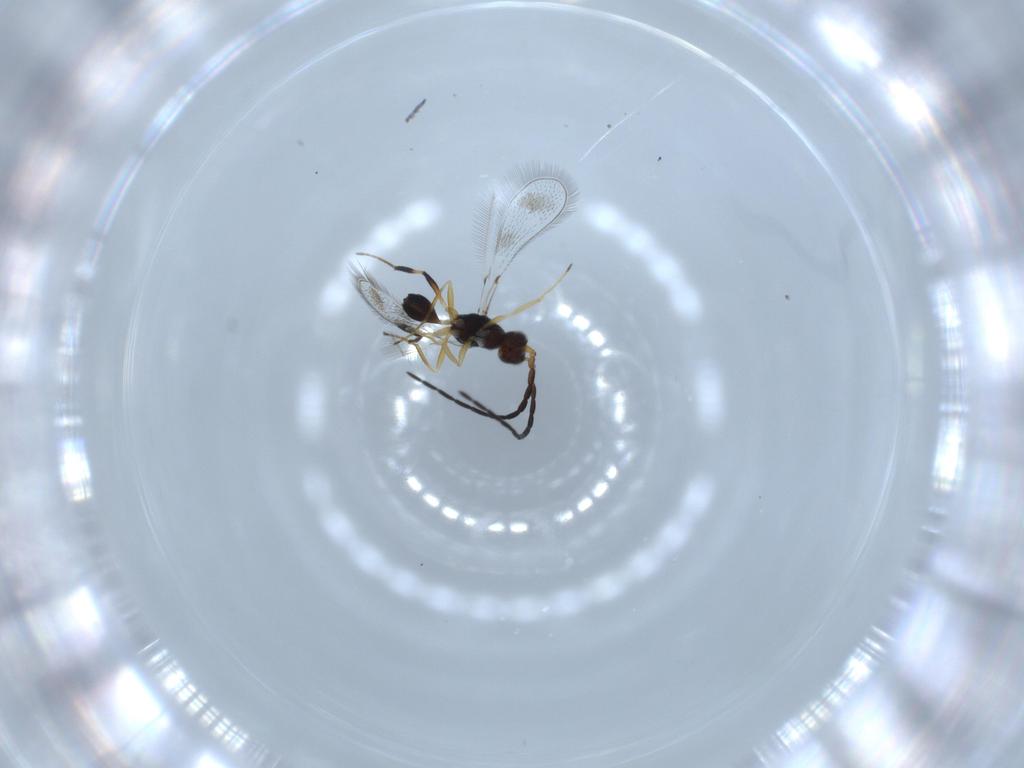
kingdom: Animalia
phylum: Arthropoda
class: Insecta
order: Hymenoptera
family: Mymaridae
